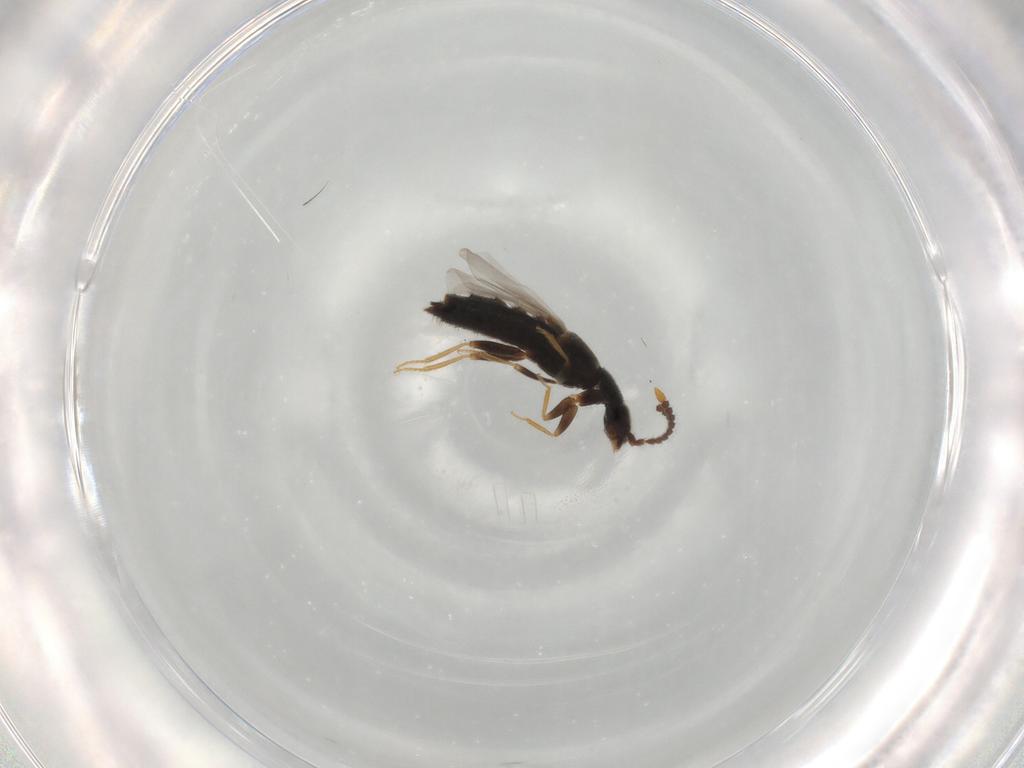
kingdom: Animalia
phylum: Arthropoda
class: Insecta
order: Coleoptera
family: Staphylinidae
